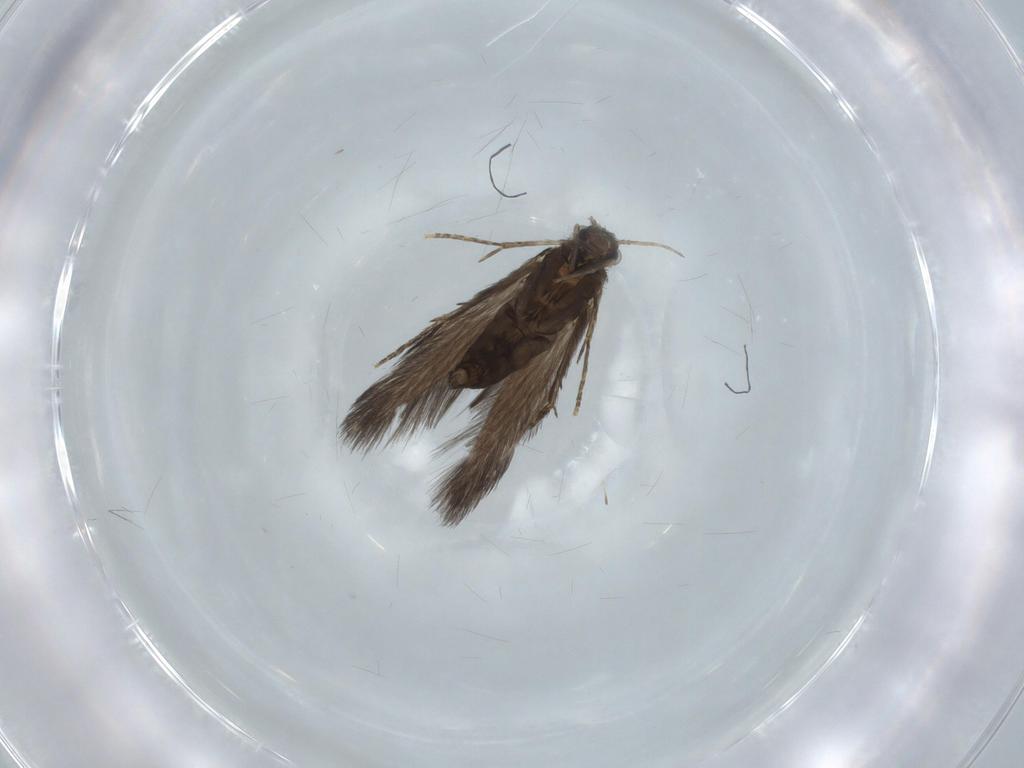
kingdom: Animalia
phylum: Arthropoda
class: Insecta
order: Trichoptera
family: Hydroptilidae
